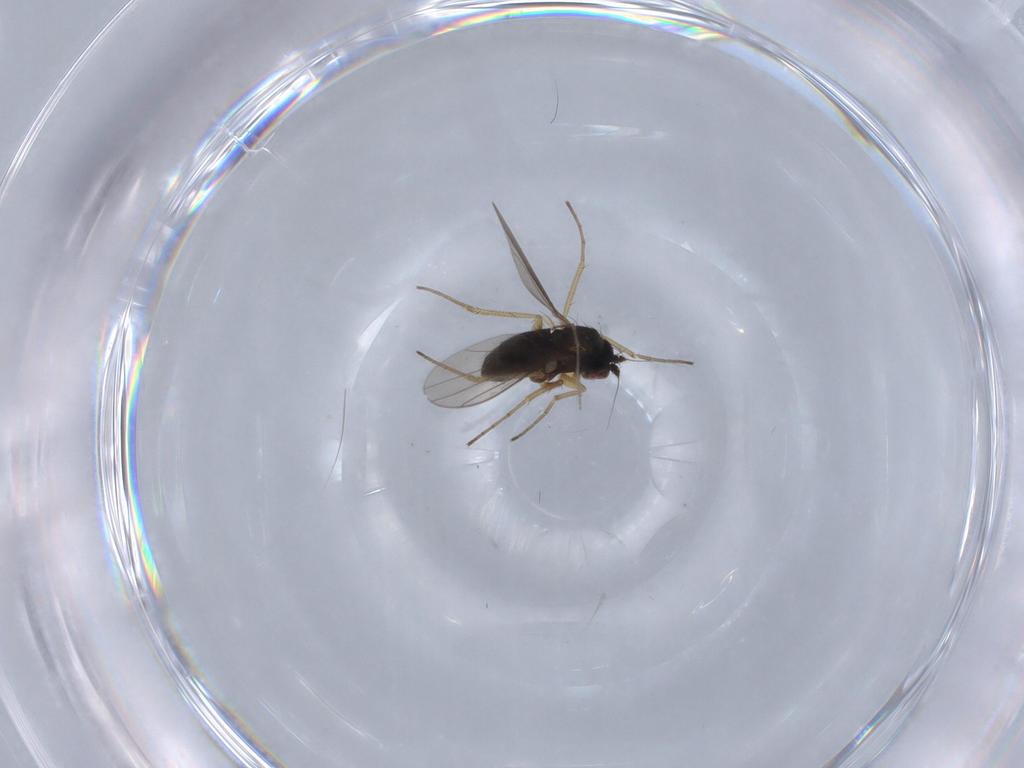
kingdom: Animalia
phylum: Arthropoda
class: Insecta
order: Diptera
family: Dolichopodidae
